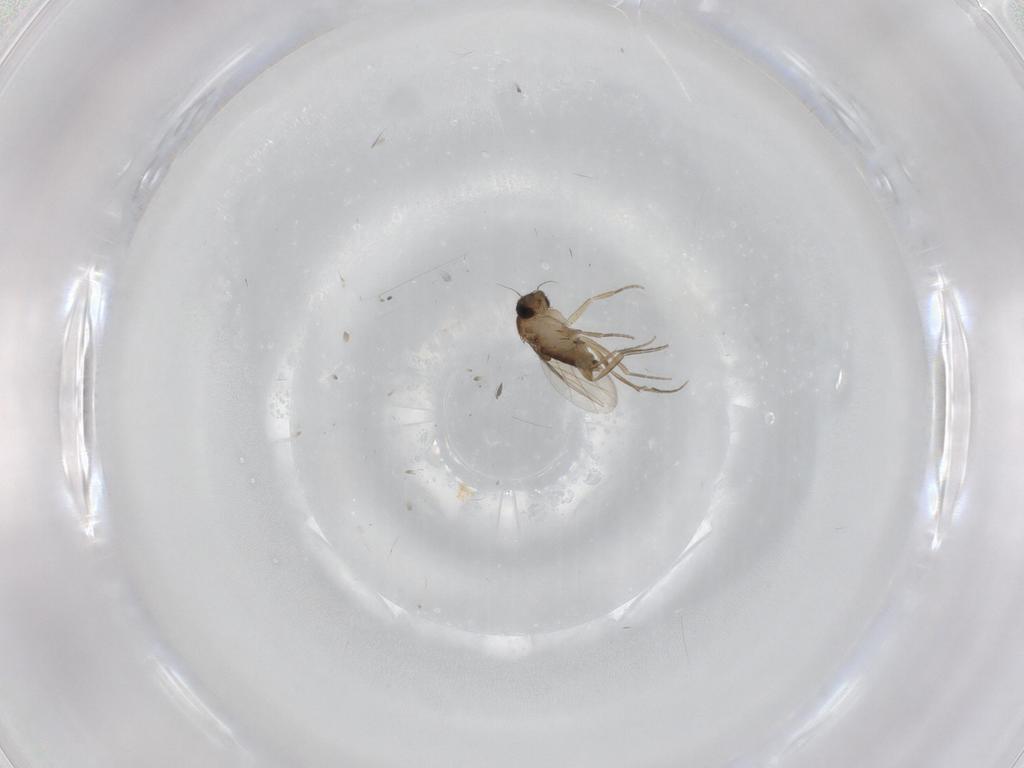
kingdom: Animalia
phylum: Arthropoda
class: Insecta
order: Diptera
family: Phoridae
